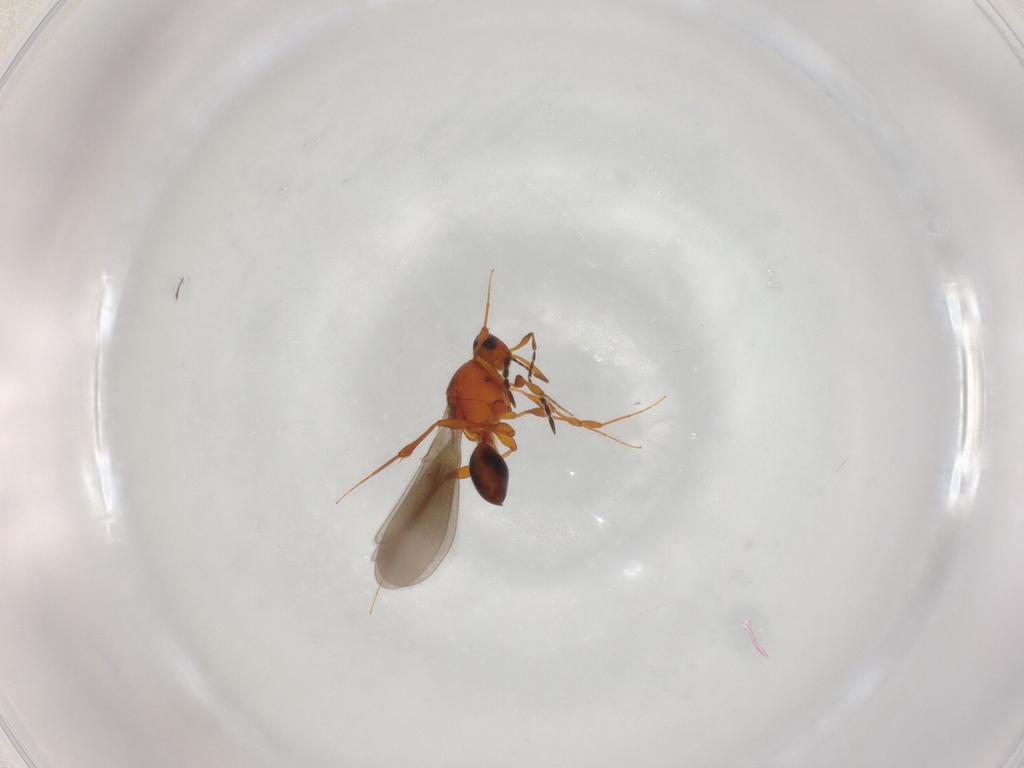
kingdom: Animalia
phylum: Arthropoda
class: Insecta
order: Hymenoptera
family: Platygastridae
